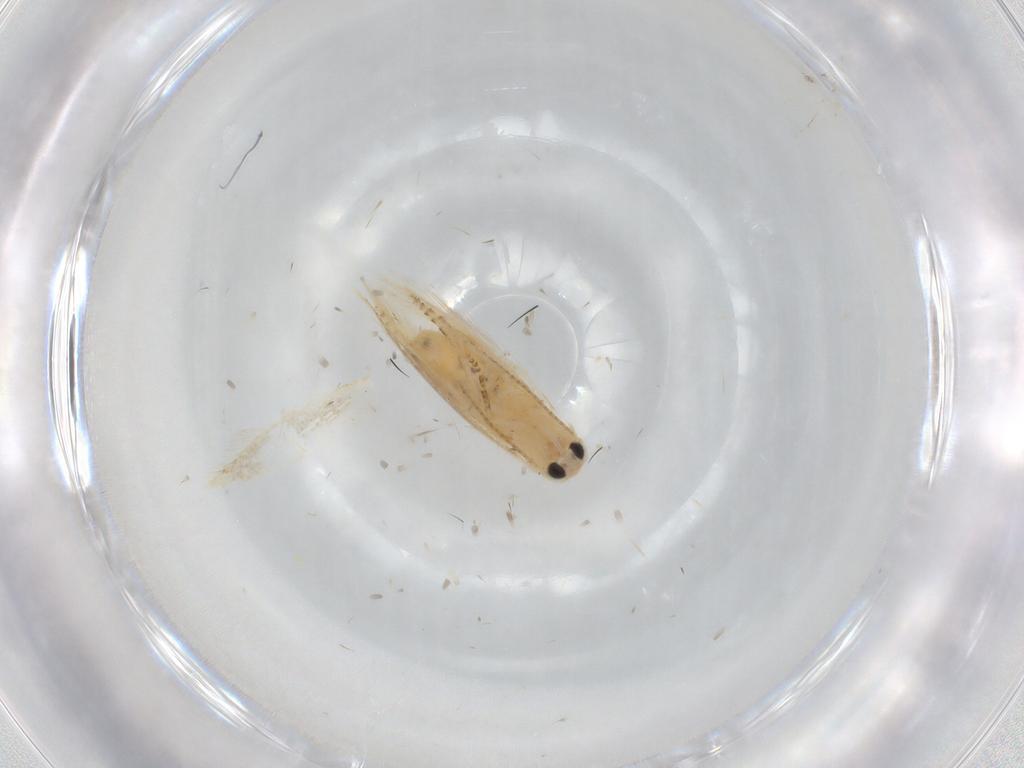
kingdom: Animalia
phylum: Arthropoda
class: Insecta
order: Lepidoptera
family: Depressariidae
